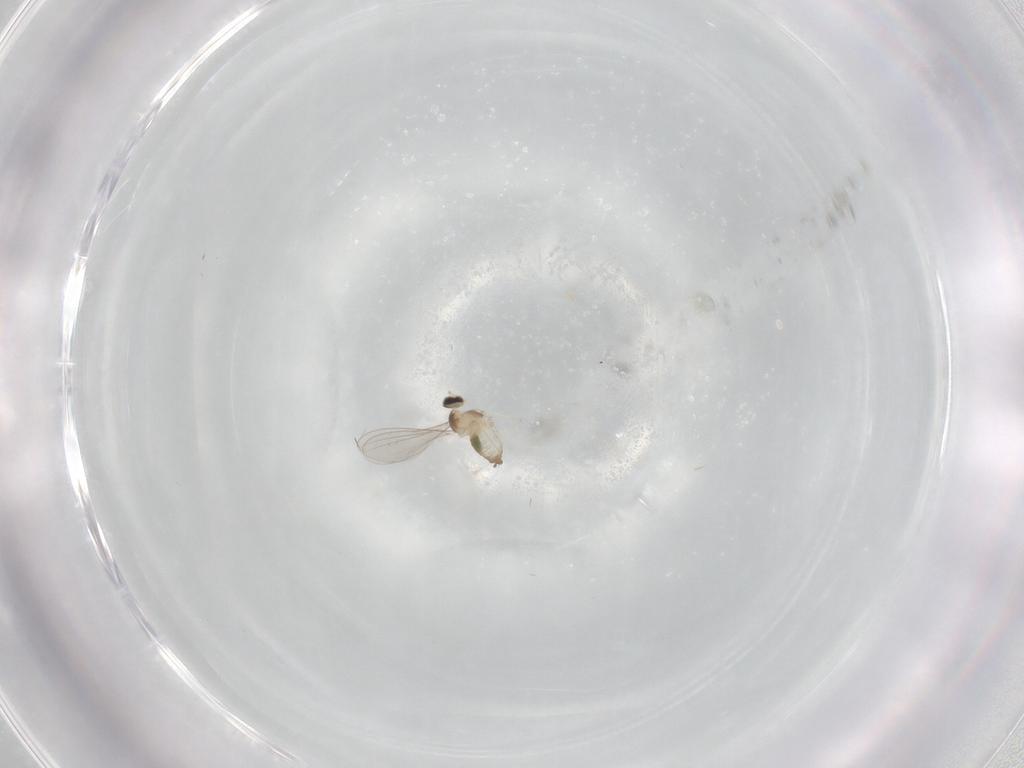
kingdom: Animalia
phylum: Arthropoda
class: Insecta
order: Diptera
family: Cecidomyiidae
